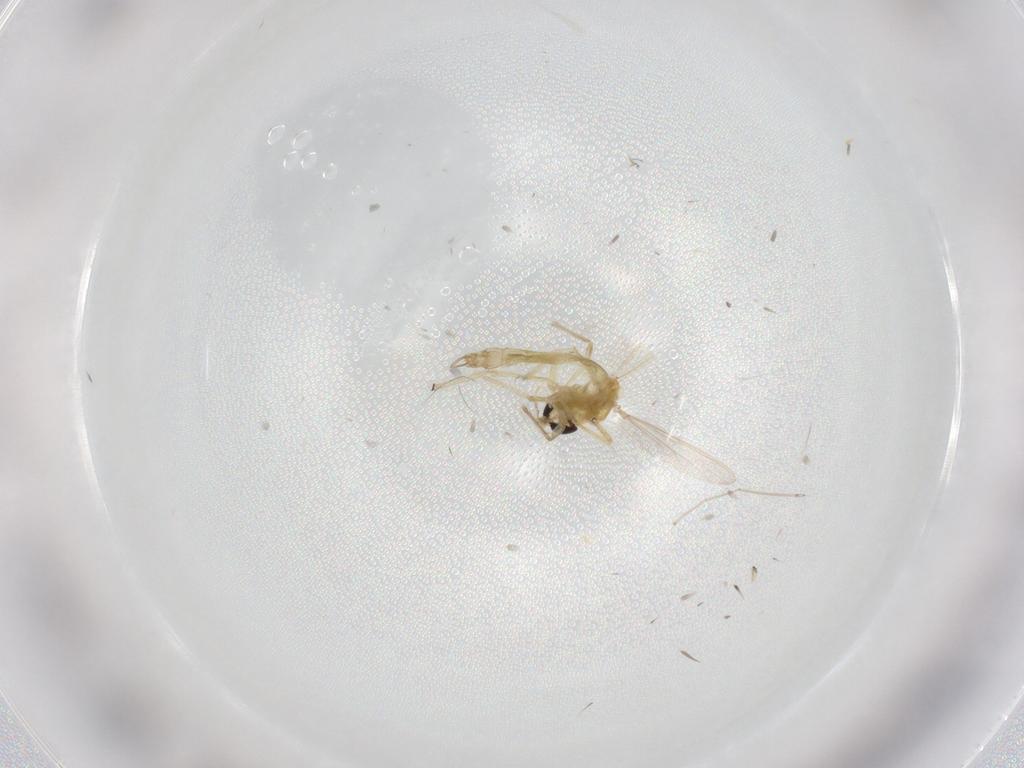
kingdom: Animalia
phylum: Arthropoda
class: Insecta
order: Diptera
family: Chironomidae
